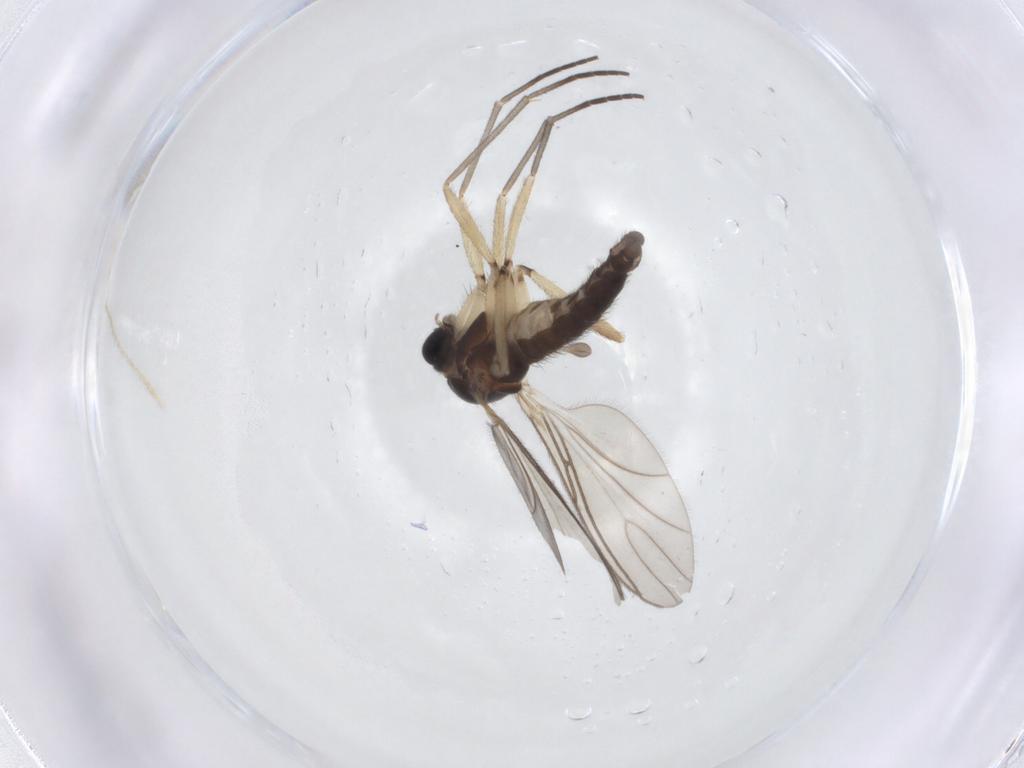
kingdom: Animalia
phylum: Arthropoda
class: Insecta
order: Diptera
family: Sciaridae
